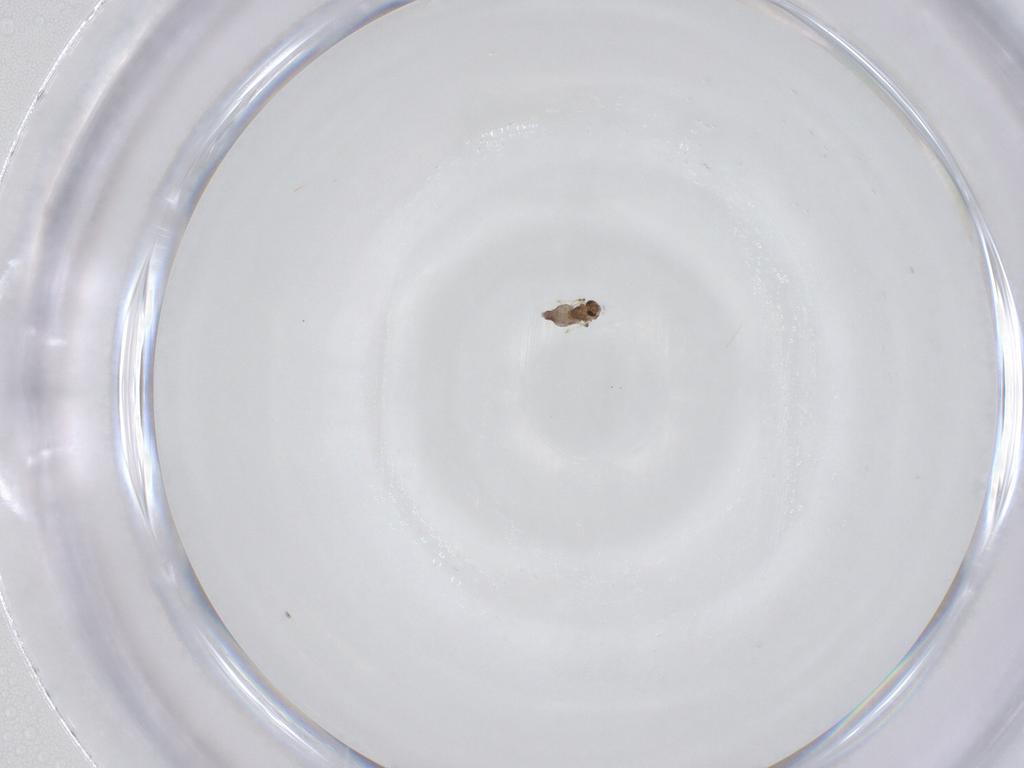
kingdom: Animalia
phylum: Arthropoda
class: Insecta
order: Diptera
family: Chironomidae
